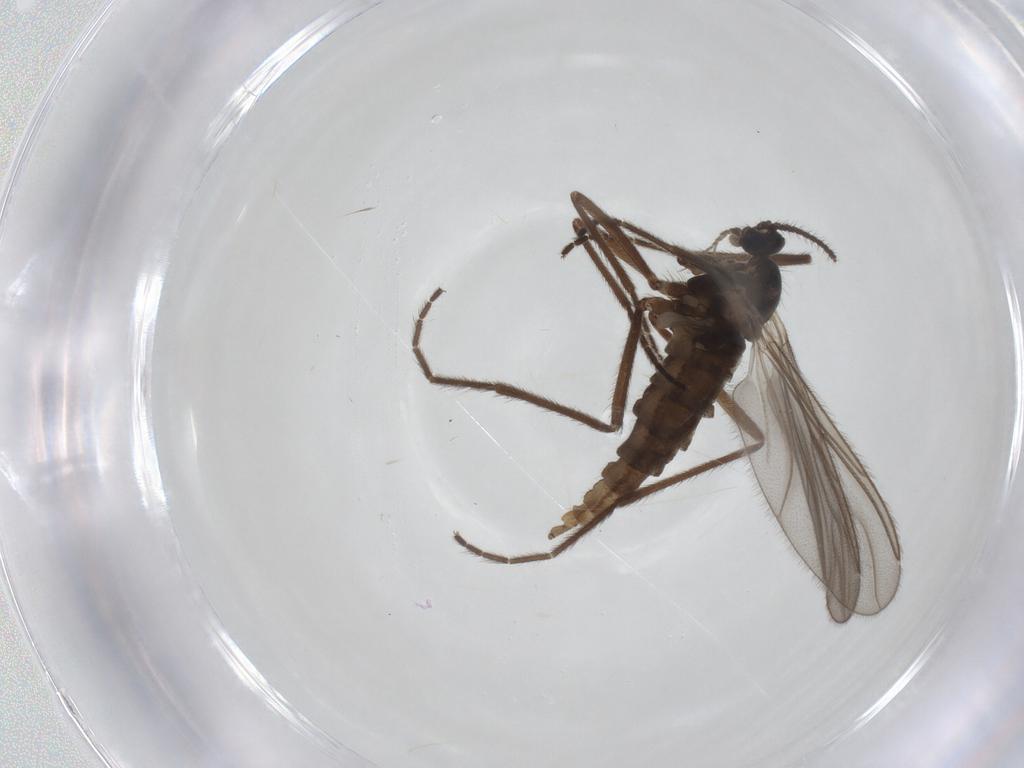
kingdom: Animalia
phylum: Arthropoda
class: Insecta
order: Diptera
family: Cecidomyiidae
